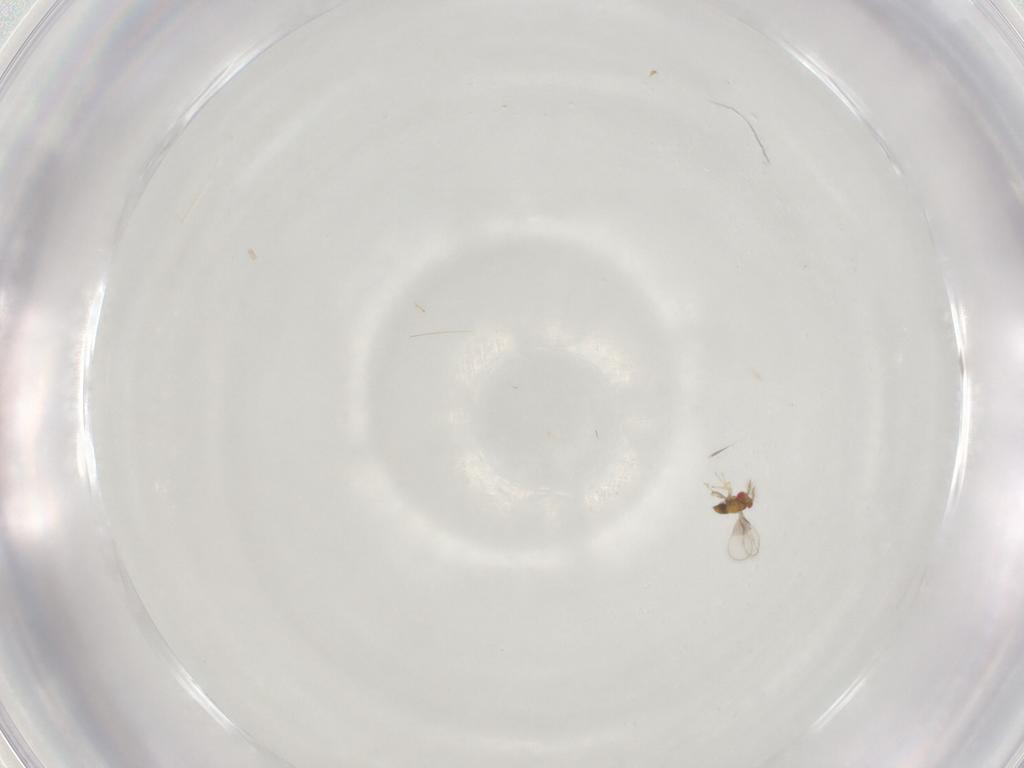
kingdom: Animalia
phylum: Arthropoda
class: Insecta
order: Hymenoptera
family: Trichogrammatidae
